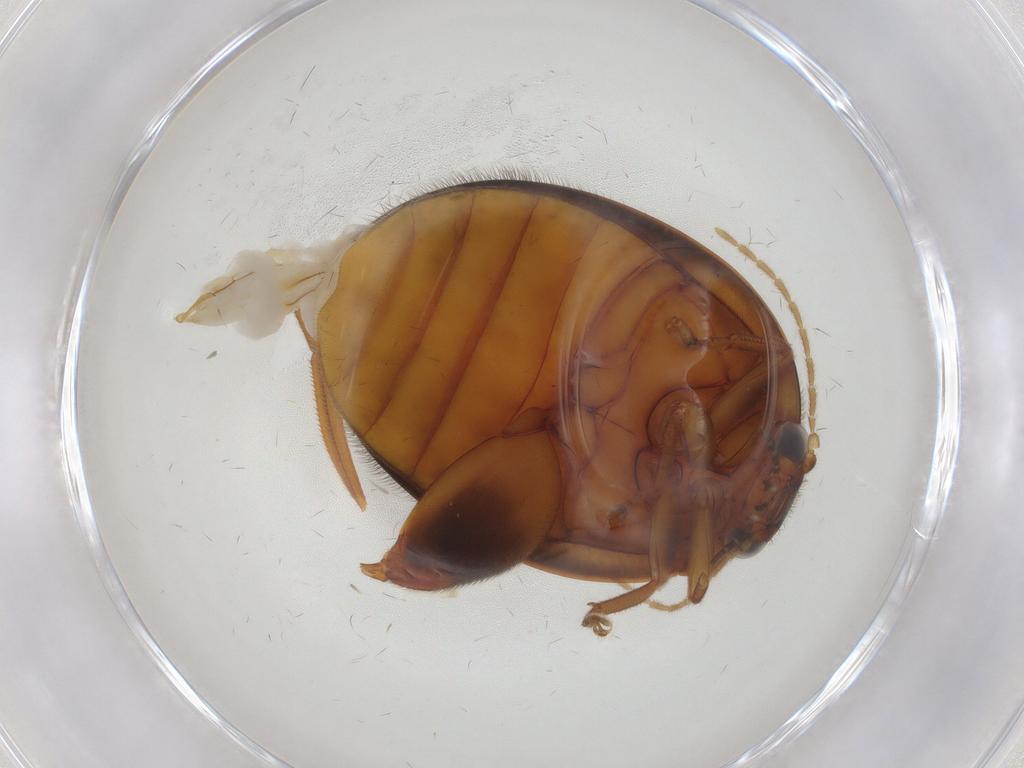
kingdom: Animalia
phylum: Arthropoda
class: Insecta
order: Coleoptera
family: Scirtidae
